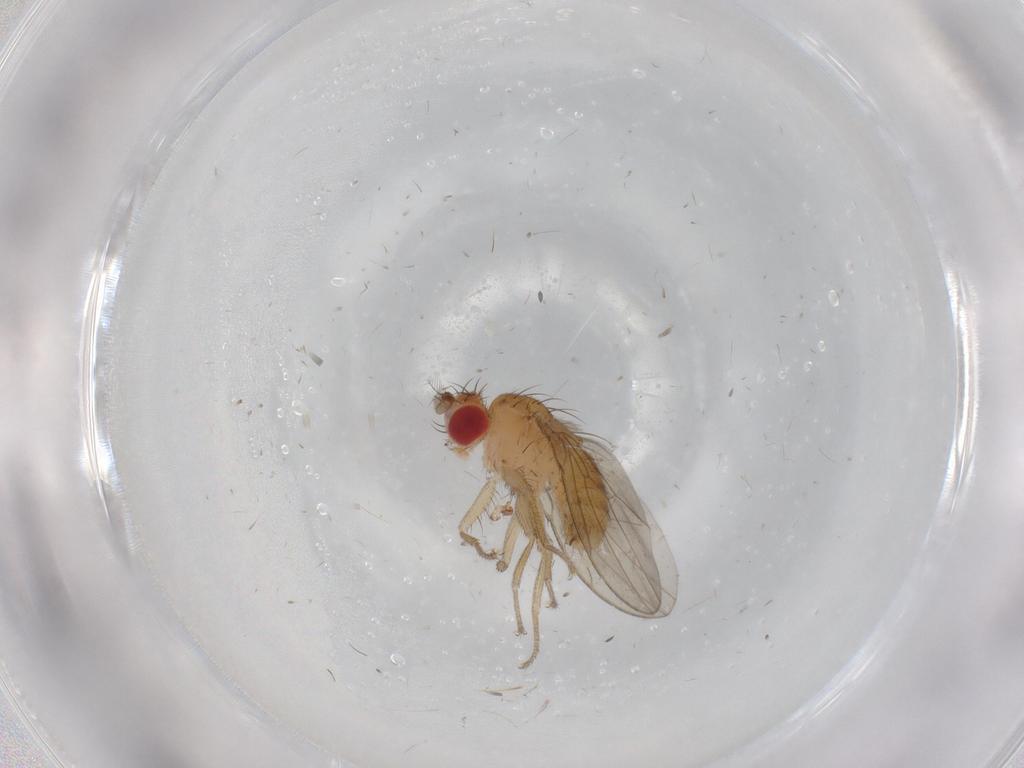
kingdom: Animalia
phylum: Arthropoda
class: Insecta
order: Diptera
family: Drosophilidae
